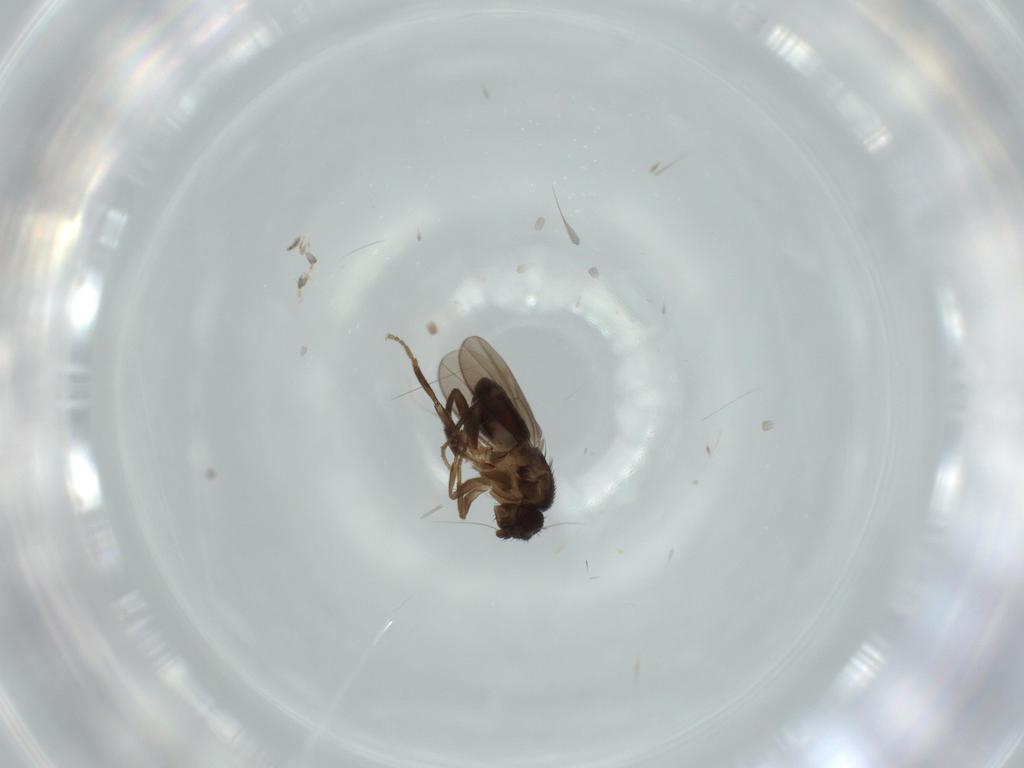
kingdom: Animalia
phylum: Arthropoda
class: Insecta
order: Diptera
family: Sphaeroceridae
